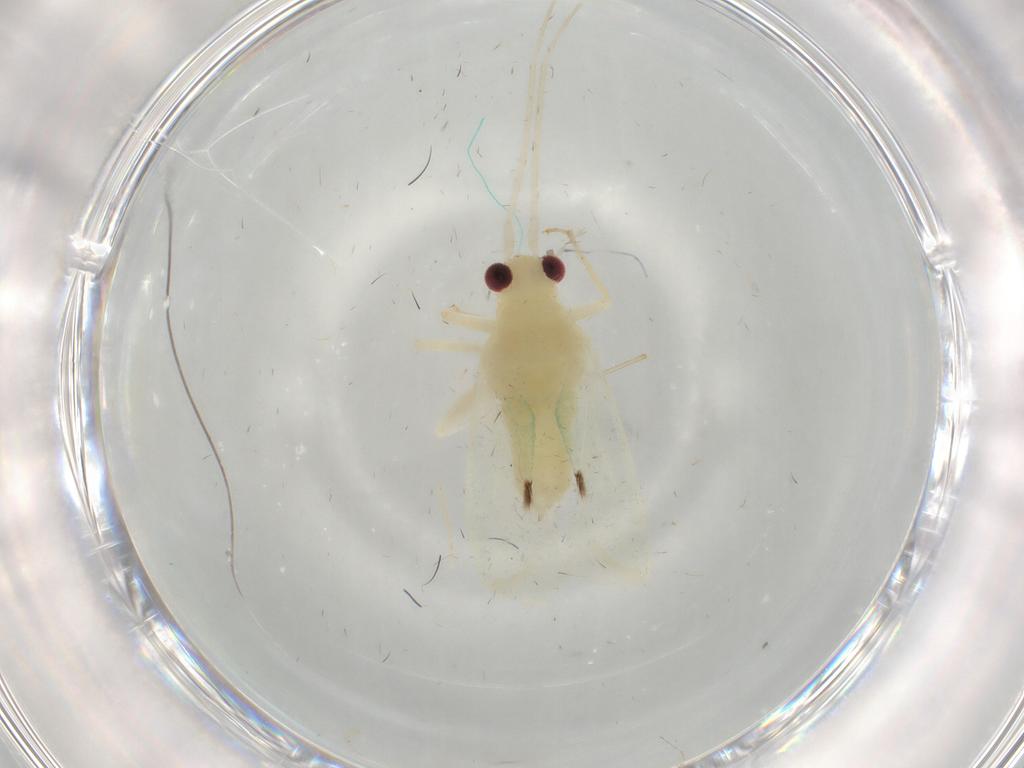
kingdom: Animalia
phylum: Arthropoda
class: Insecta
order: Hemiptera
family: Miridae
